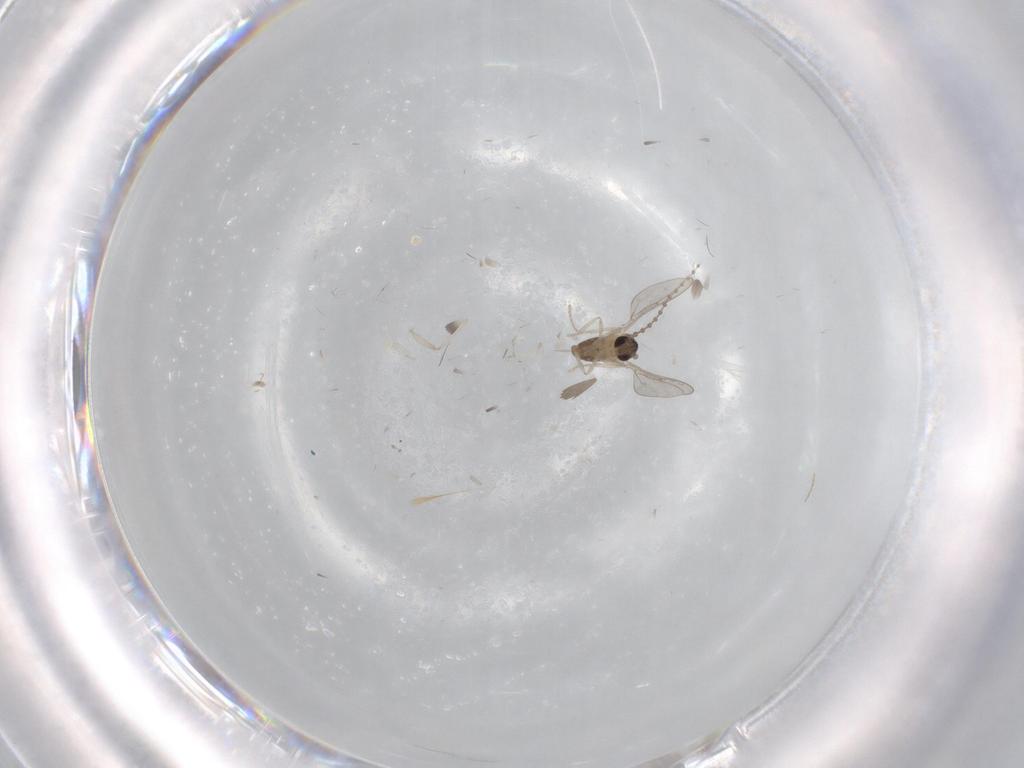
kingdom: Animalia
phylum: Arthropoda
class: Insecta
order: Diptera
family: Cecidomyiidae
